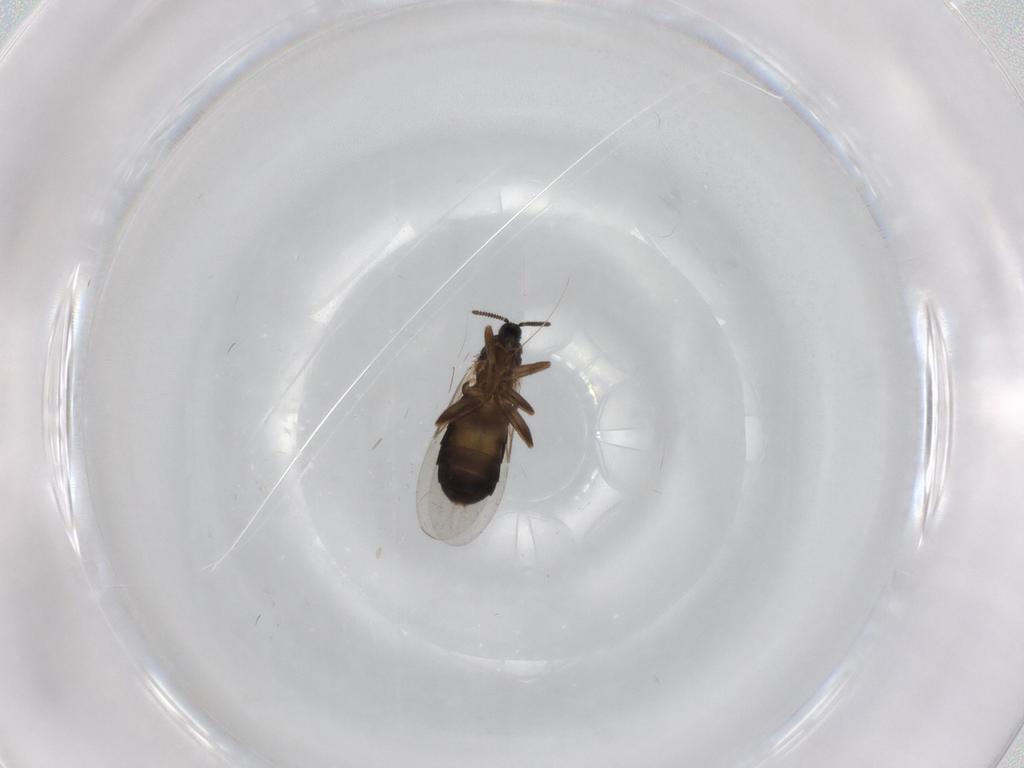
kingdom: Animalia
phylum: Arthropoda
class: Insecta
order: Diptera
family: Scatopsidae
